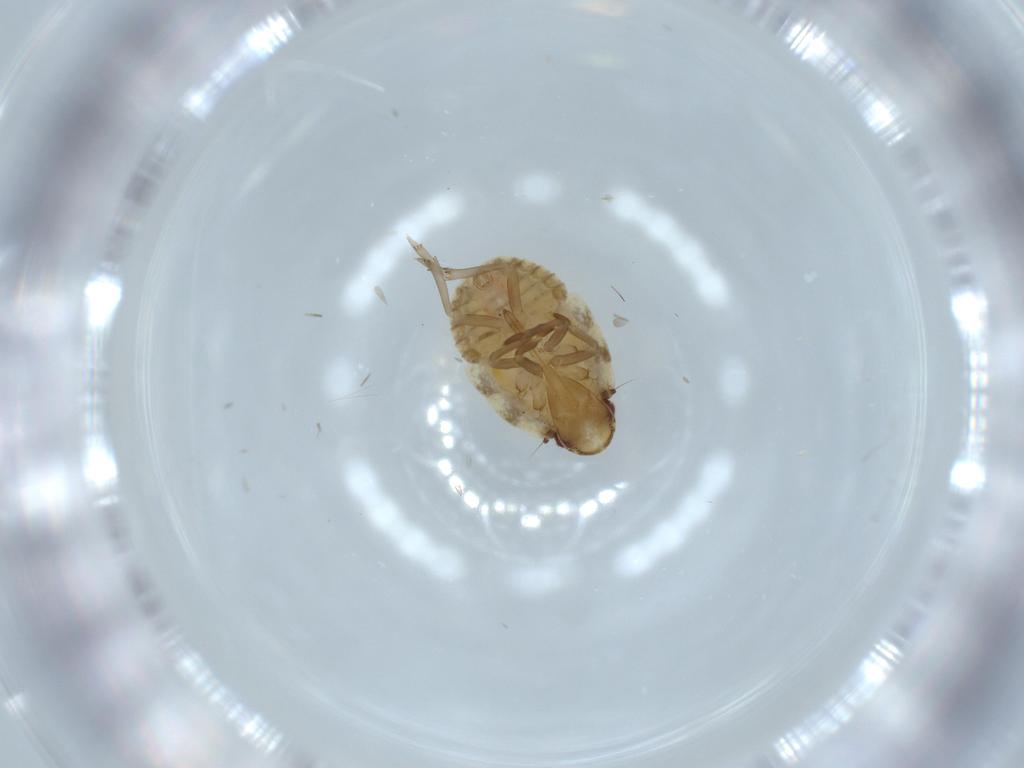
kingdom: Animalia
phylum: Arthropoda
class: Insecta
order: Hemiptera
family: Flatidae
